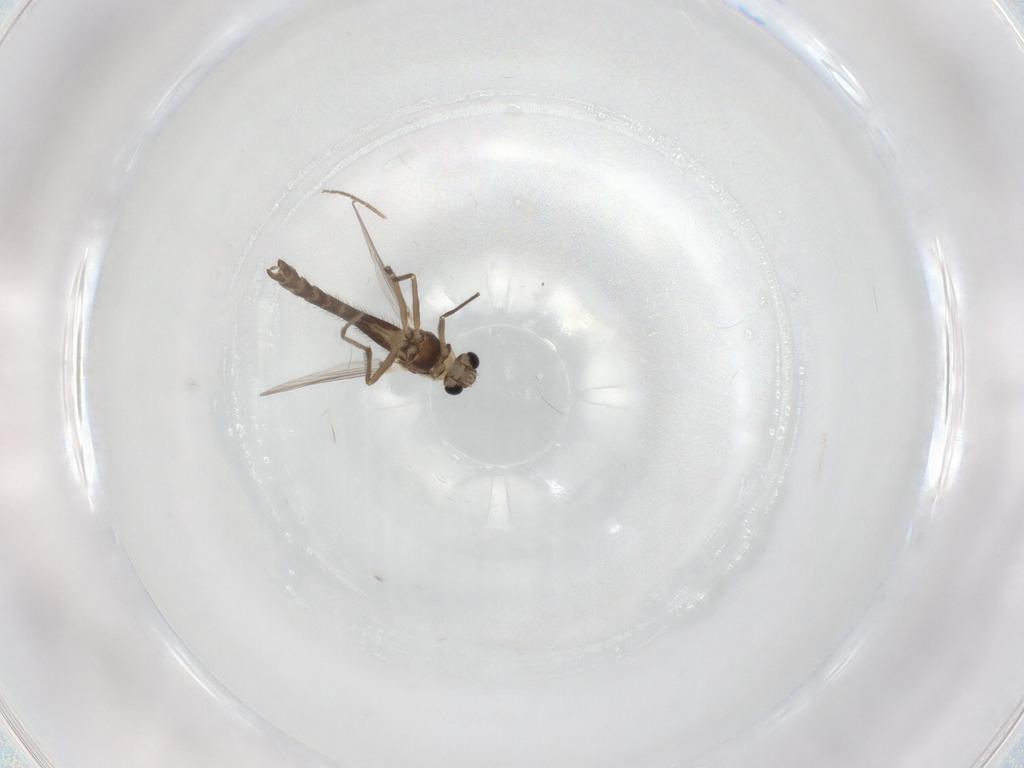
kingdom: Animalia
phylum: Arthropoda
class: Insecta
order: Diptera
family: Chironomidae
